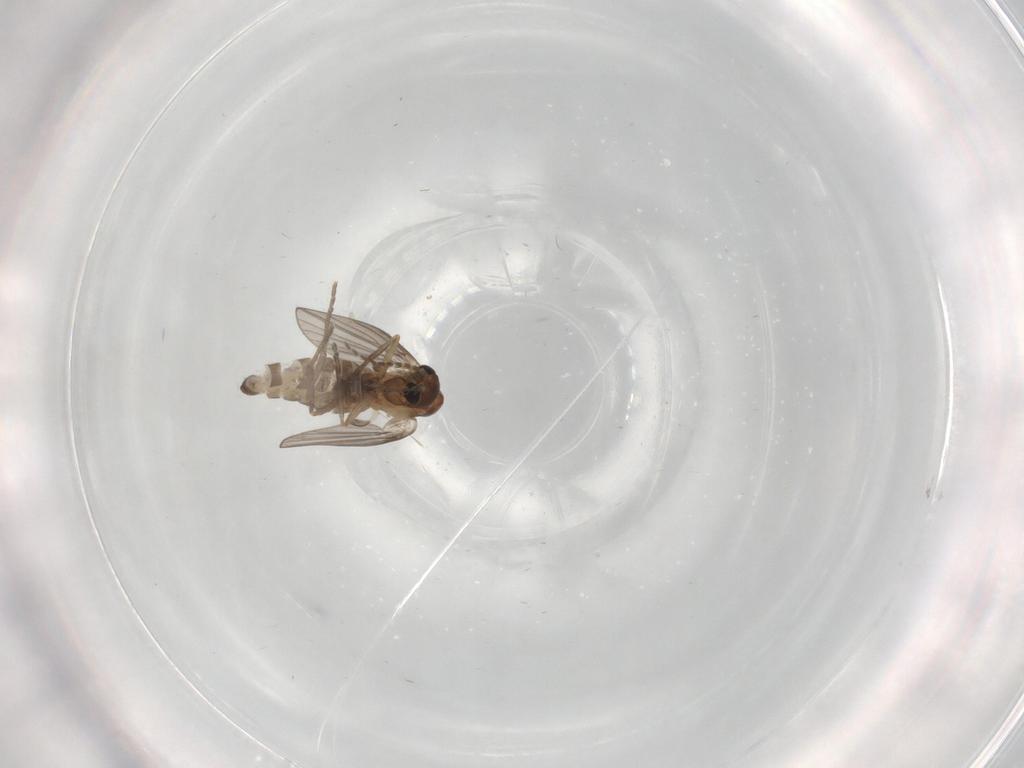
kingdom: Animalia
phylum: Arthropoda
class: Insecta
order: Diptera
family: Psychodidae
